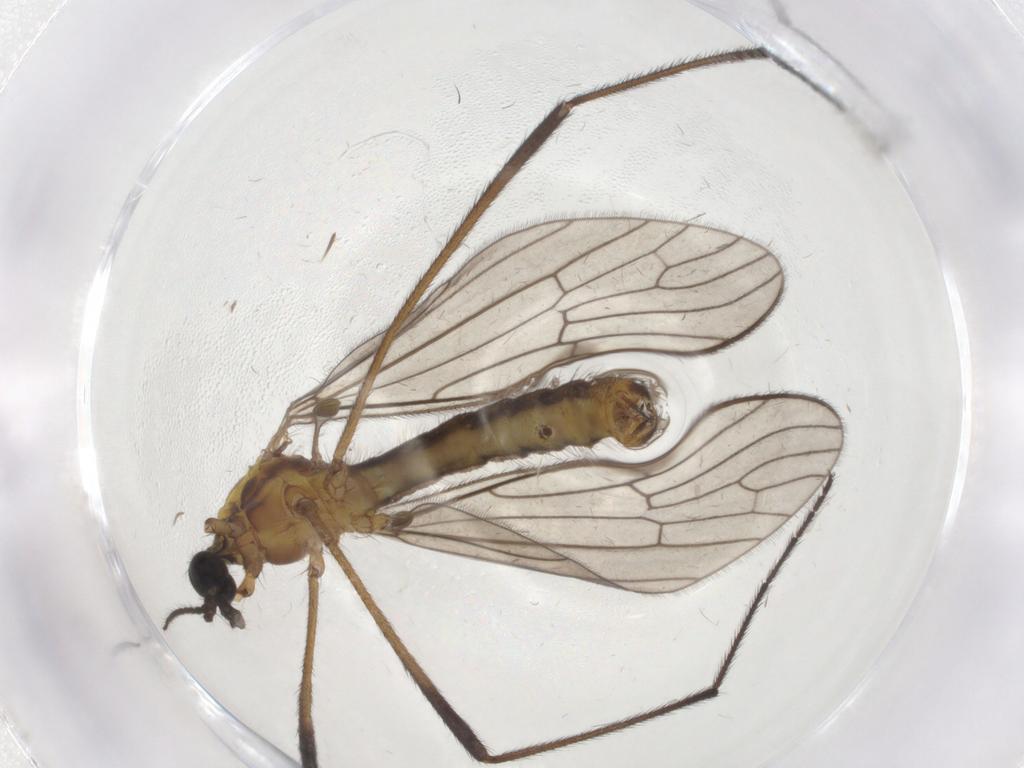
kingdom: Animalia
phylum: Arthropoda
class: Insecta
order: Diptera
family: Limoniidae
